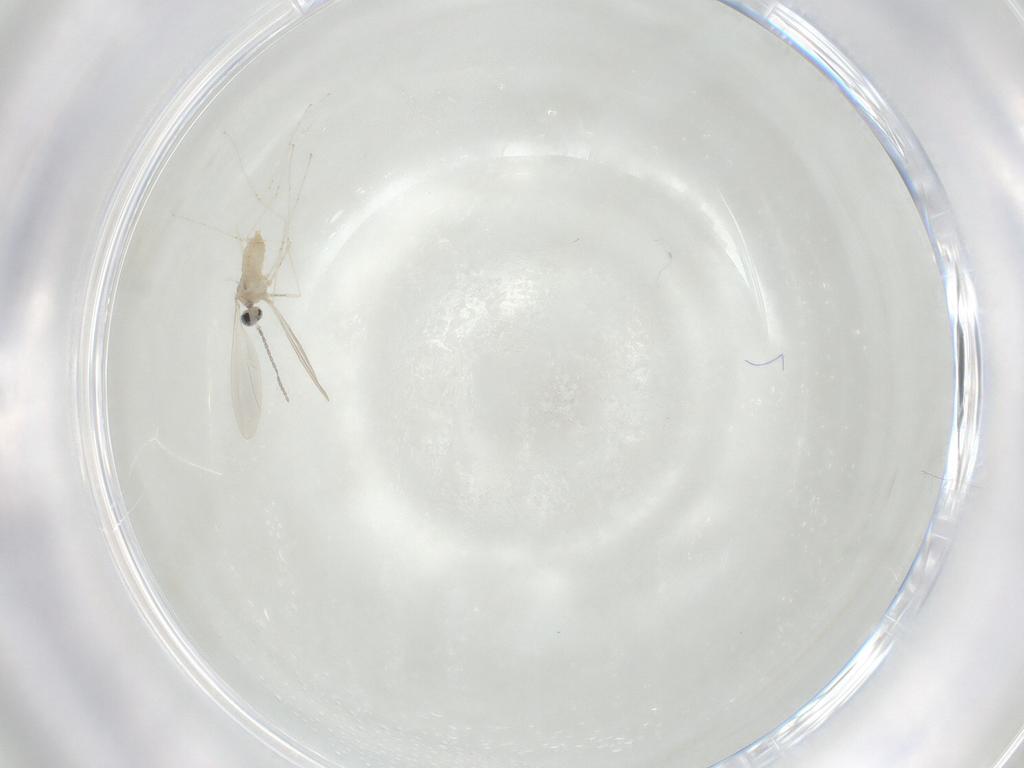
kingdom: Animalia
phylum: Arthropoda
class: Insecta
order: Diptera
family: Cecidomyiidae
